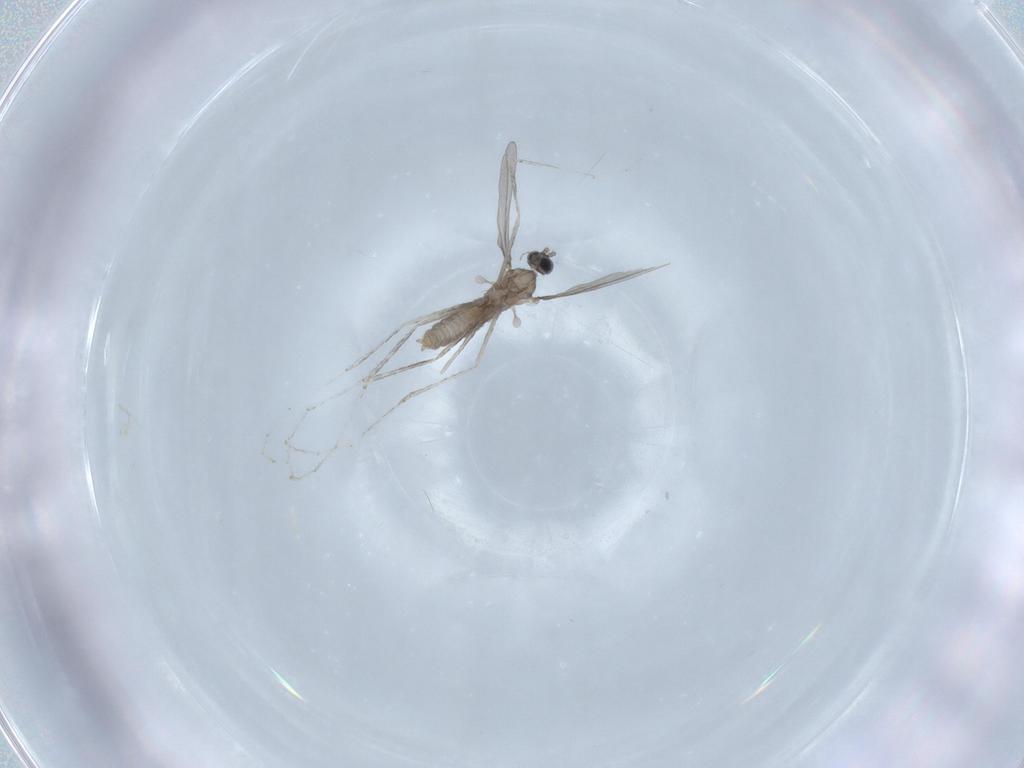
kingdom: Animalia
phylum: Arthropoda
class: Insecta
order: Diptera
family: Cecidomyiidae
